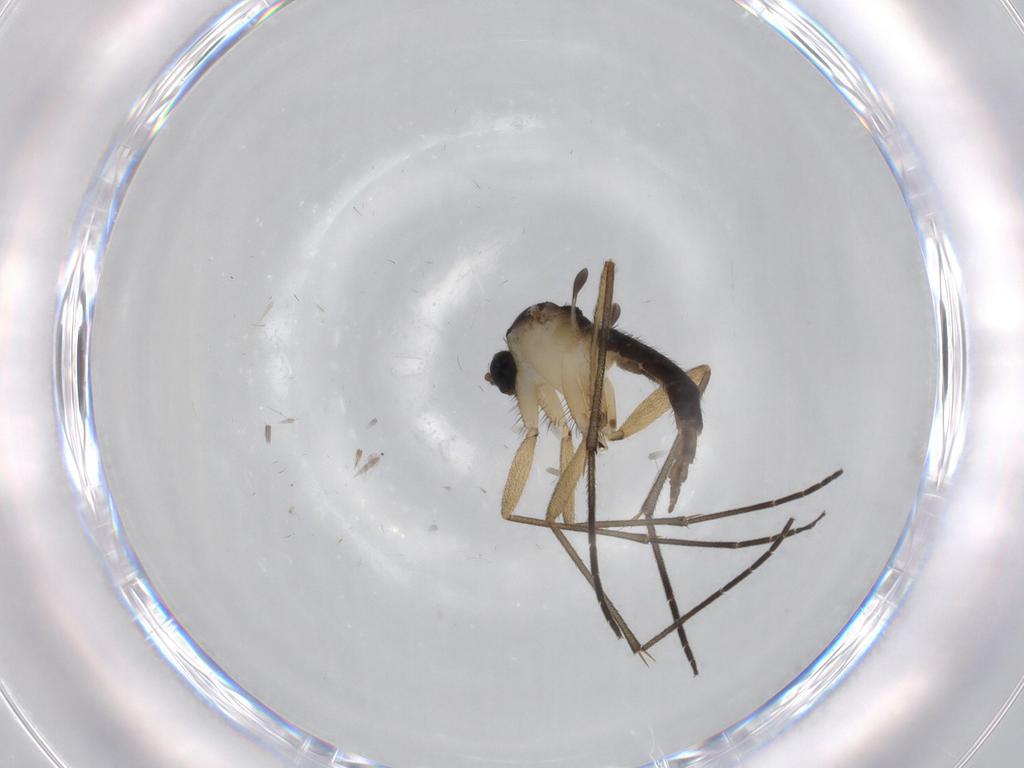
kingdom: Animalia
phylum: Arthropoda
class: Insecta
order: Diptera
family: Sciaridae
